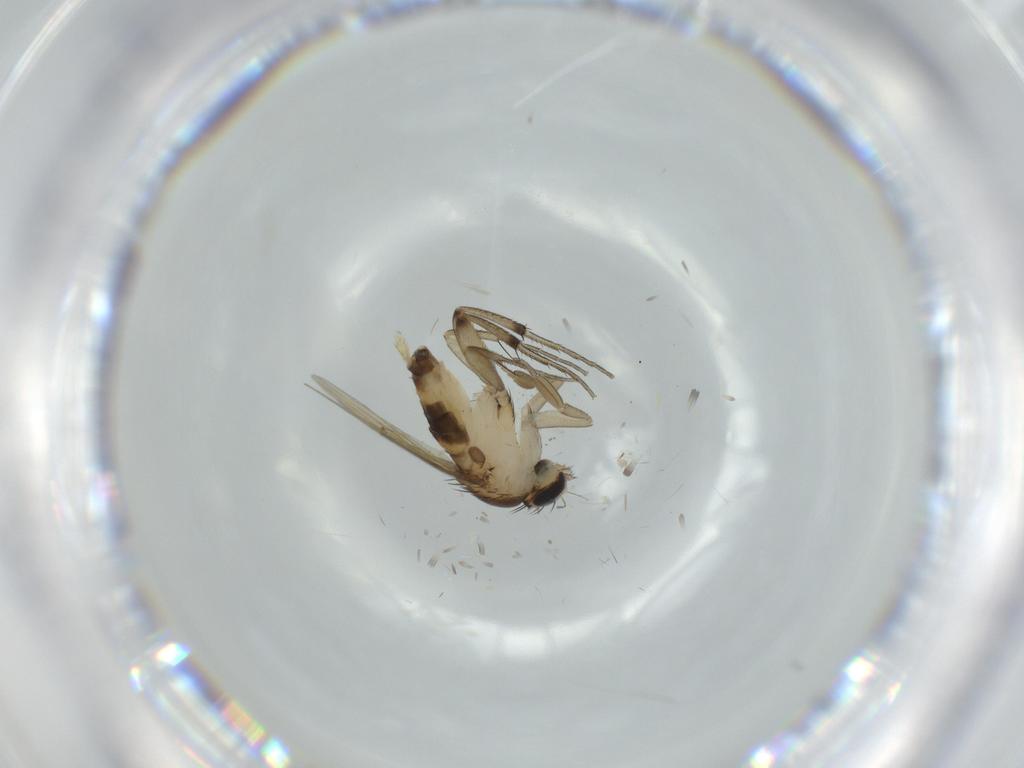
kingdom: Animalia
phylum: Arthropoda
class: Insecta
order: Diptera
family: Phoridae
